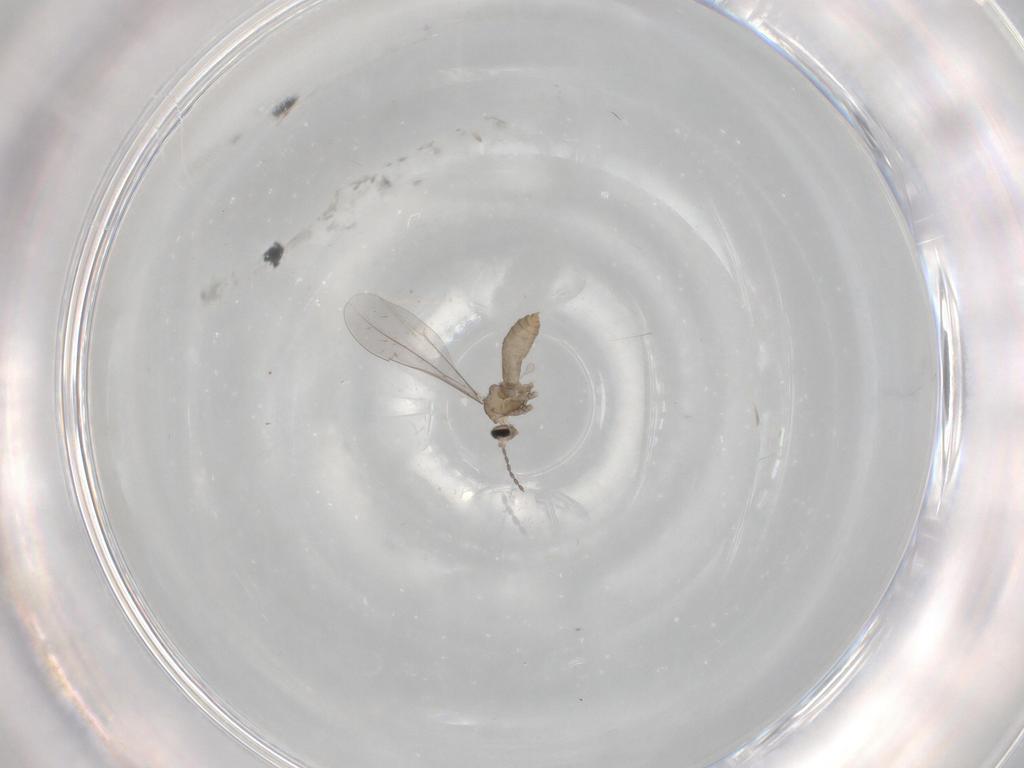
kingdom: Animalia
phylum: Arthropoda
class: Insecta
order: Diptera
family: Cecidomyiidae
